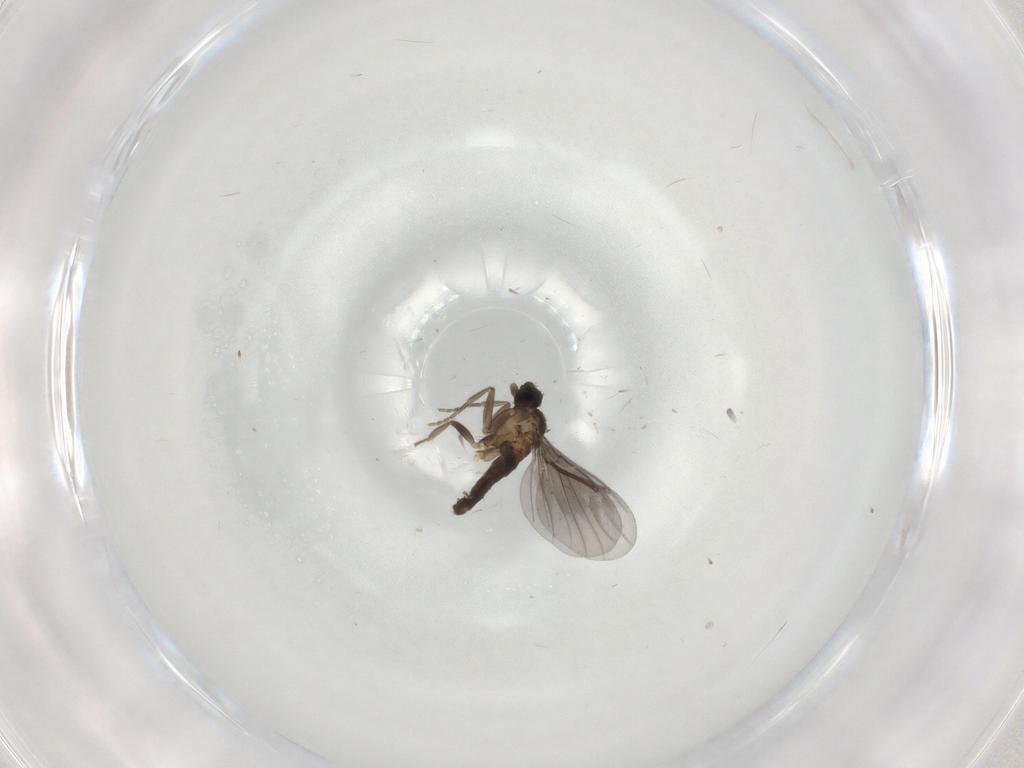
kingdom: Animalia
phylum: Arthropoda
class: Insecta
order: Diptera
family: Phoridae
